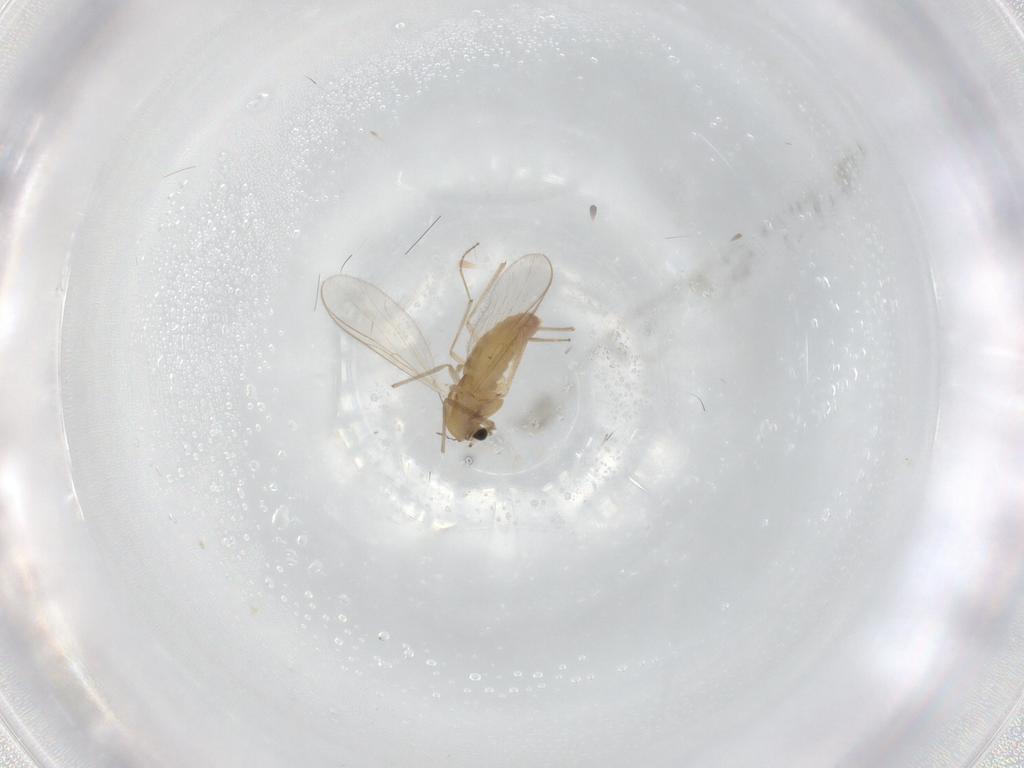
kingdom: Animalia
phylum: Arthropoda
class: Insecta
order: Diptera
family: Chironomidae
